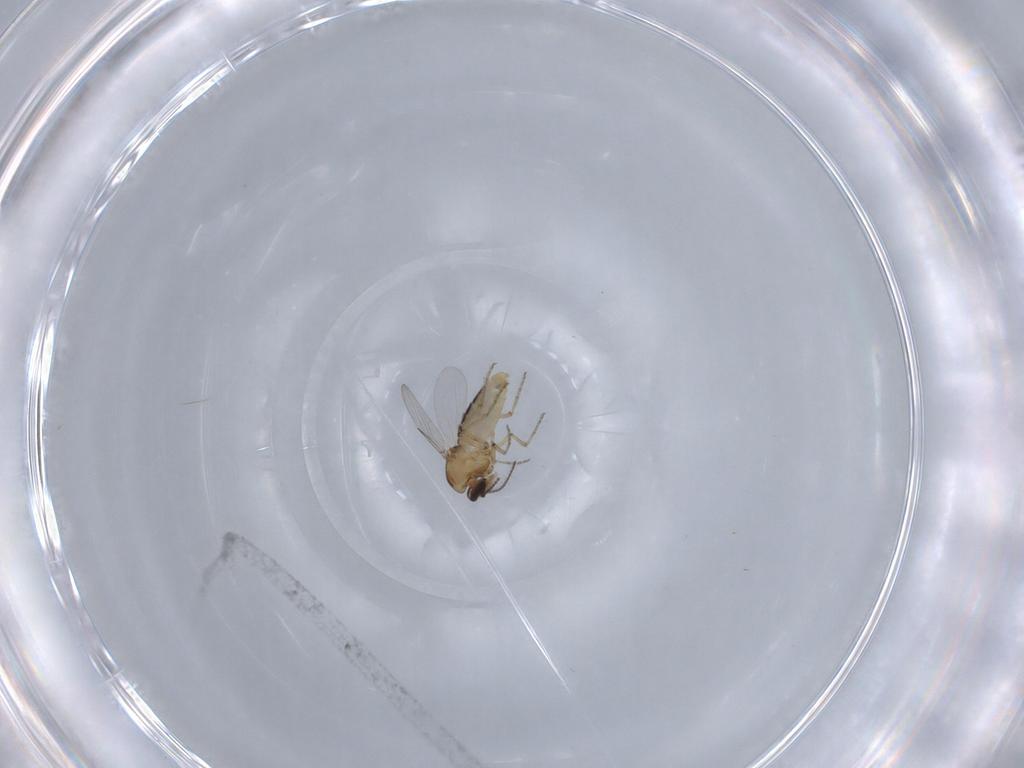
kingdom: Animalia
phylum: Arthropoda
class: Insecta
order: Diptera
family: Ceratopogonidae
